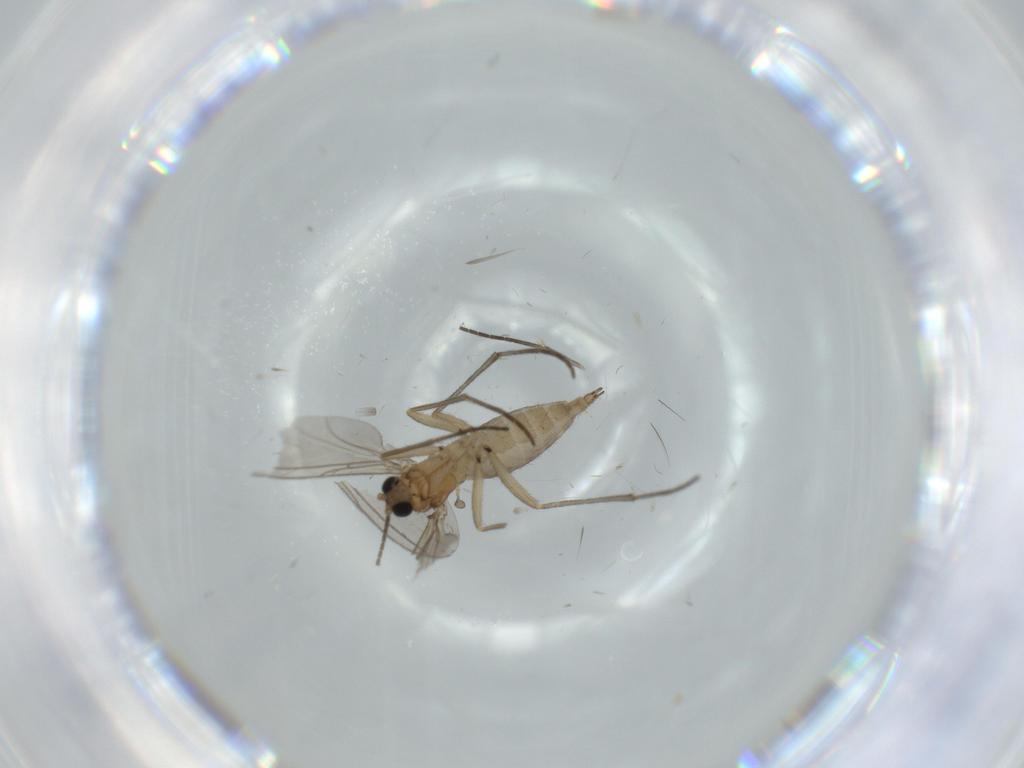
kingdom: Animalia
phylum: Arthropoda
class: Insecta
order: Diptera
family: Sciaridae
